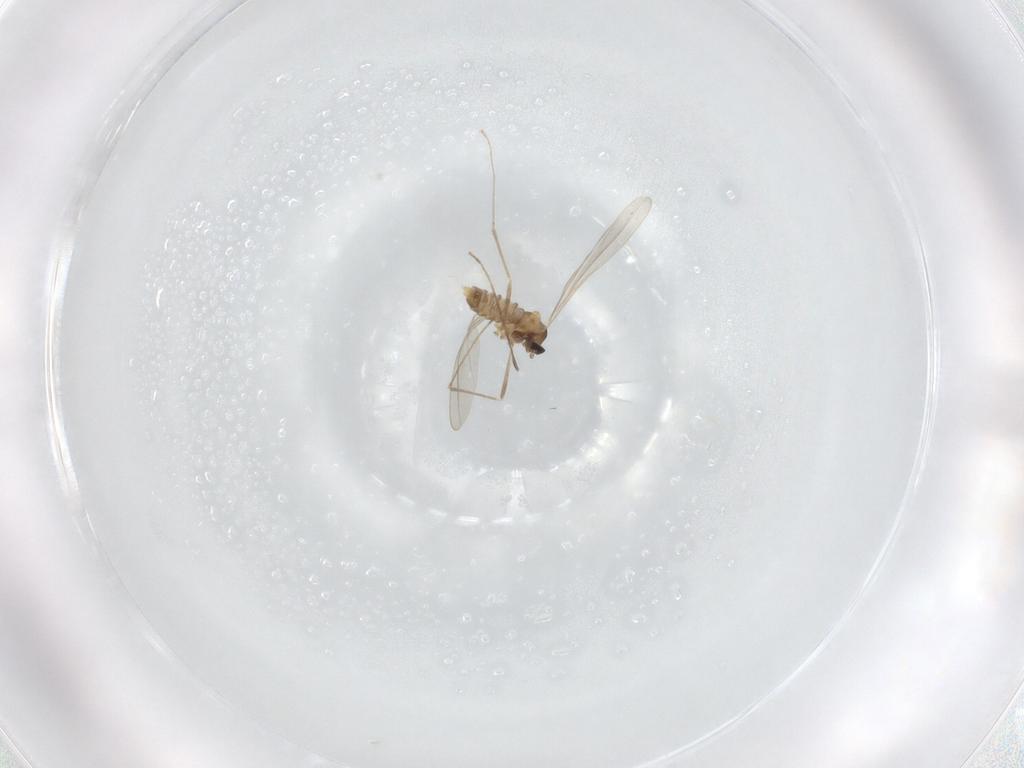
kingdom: Animalia
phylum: Arthropoda
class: Insecta
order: Diptera
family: Cecidomyiidae
